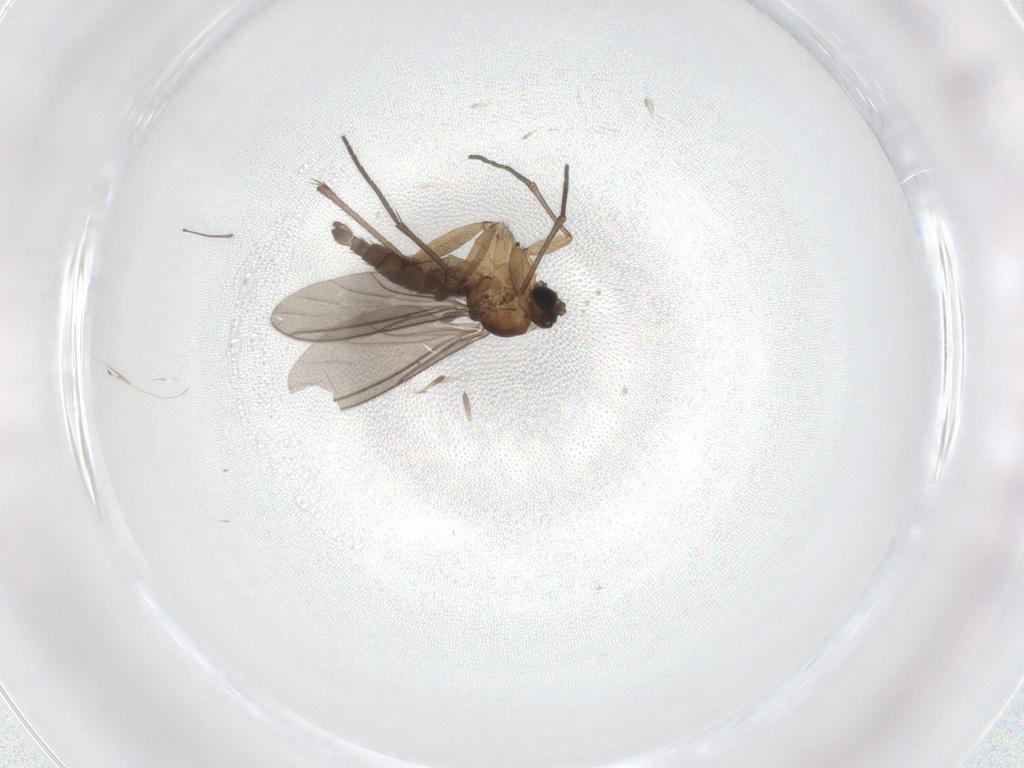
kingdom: Animalia
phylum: Arthropoda
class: Insecta
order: Diptera
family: Sciaridae
